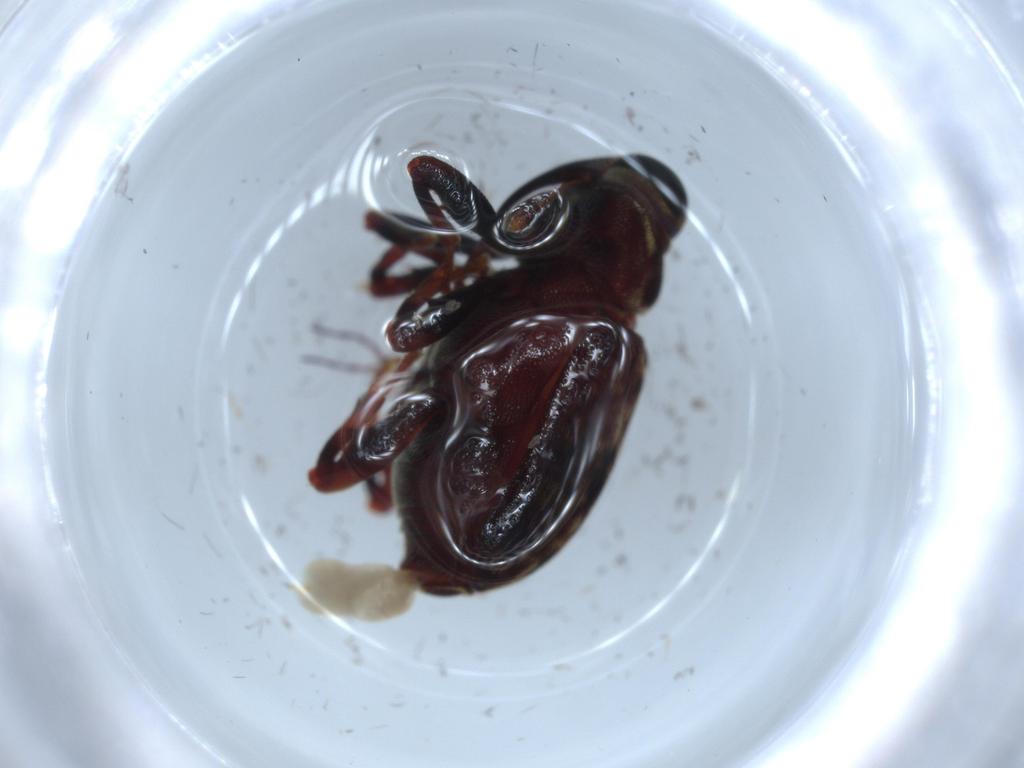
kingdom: Animalia
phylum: Arthropoda
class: Insecta
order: Coleoptera
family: Curculionidae
